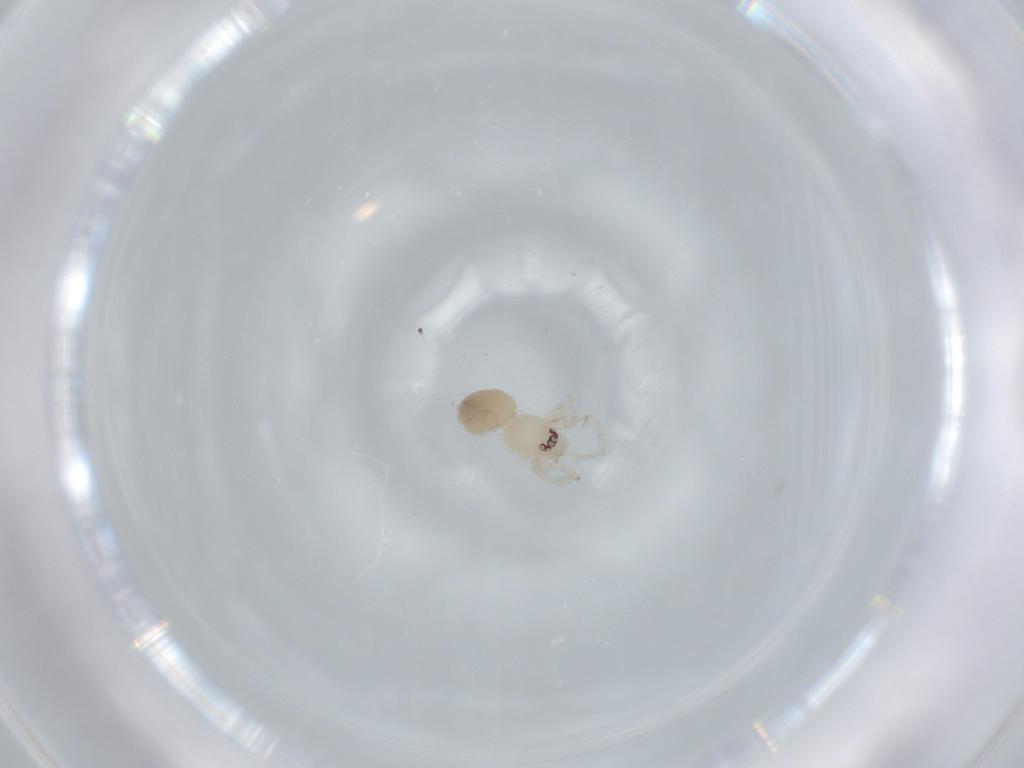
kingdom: Animalia
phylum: Arthropoda
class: Arachnida
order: Araneae
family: Oonopidae
